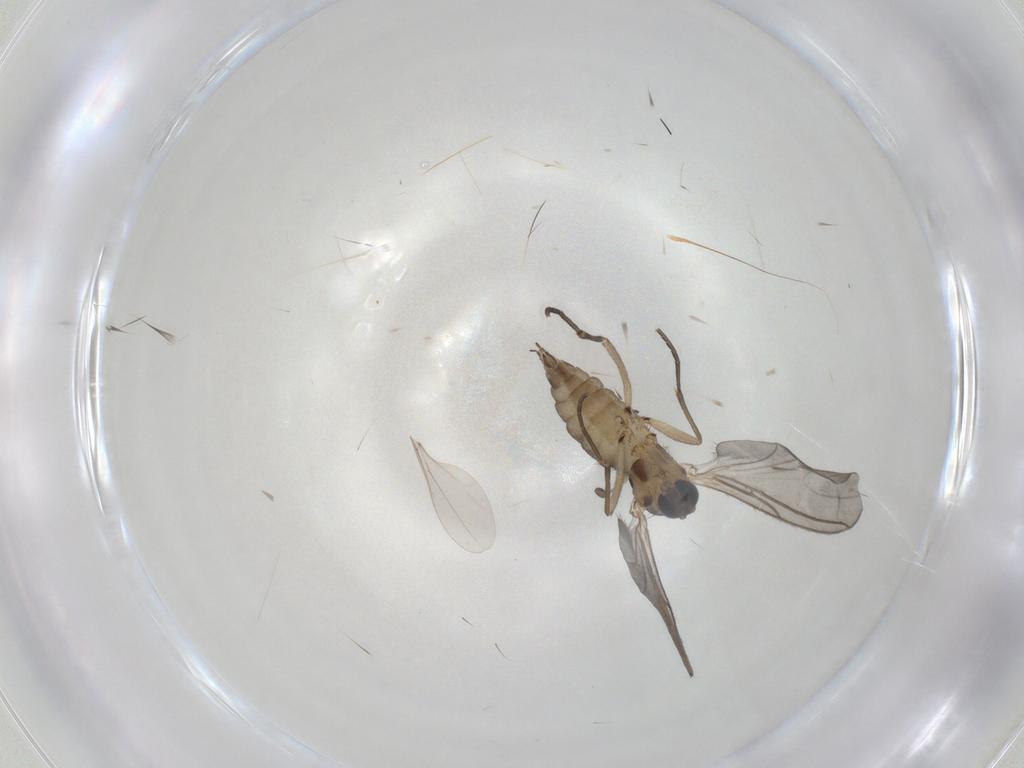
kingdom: Animalia
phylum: Arthropoda
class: Insecta
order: Diptera
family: Sciaridae
